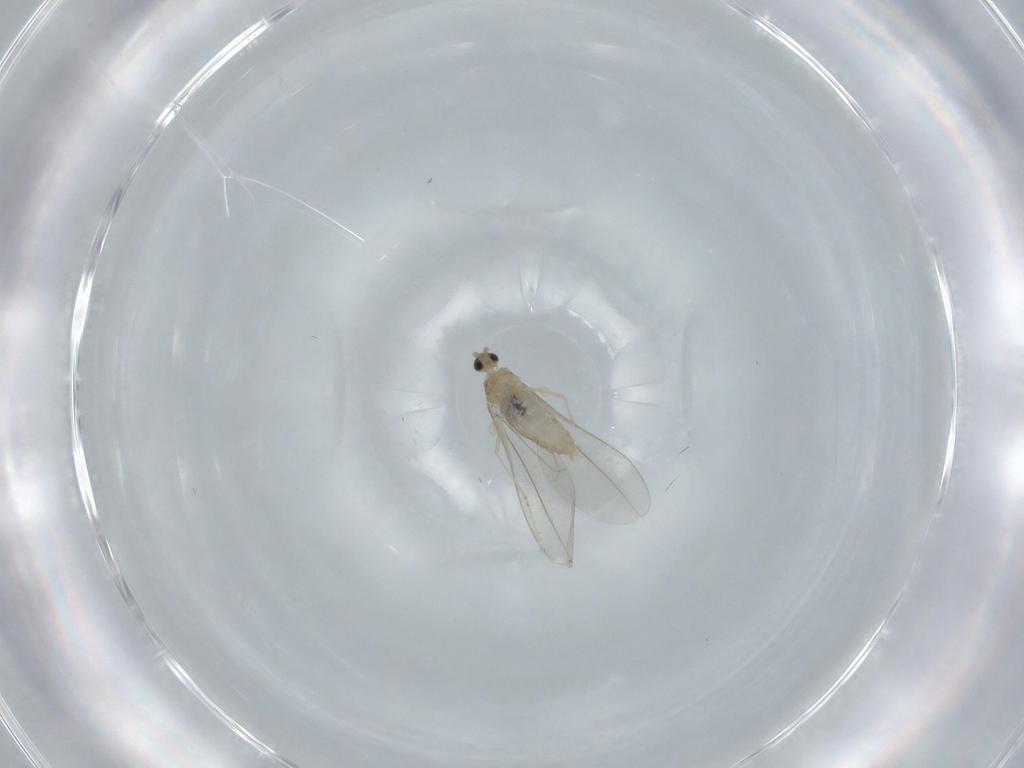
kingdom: Animalia
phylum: Arthropoda
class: Insecta
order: Diptera
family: Cecidomyiidae
